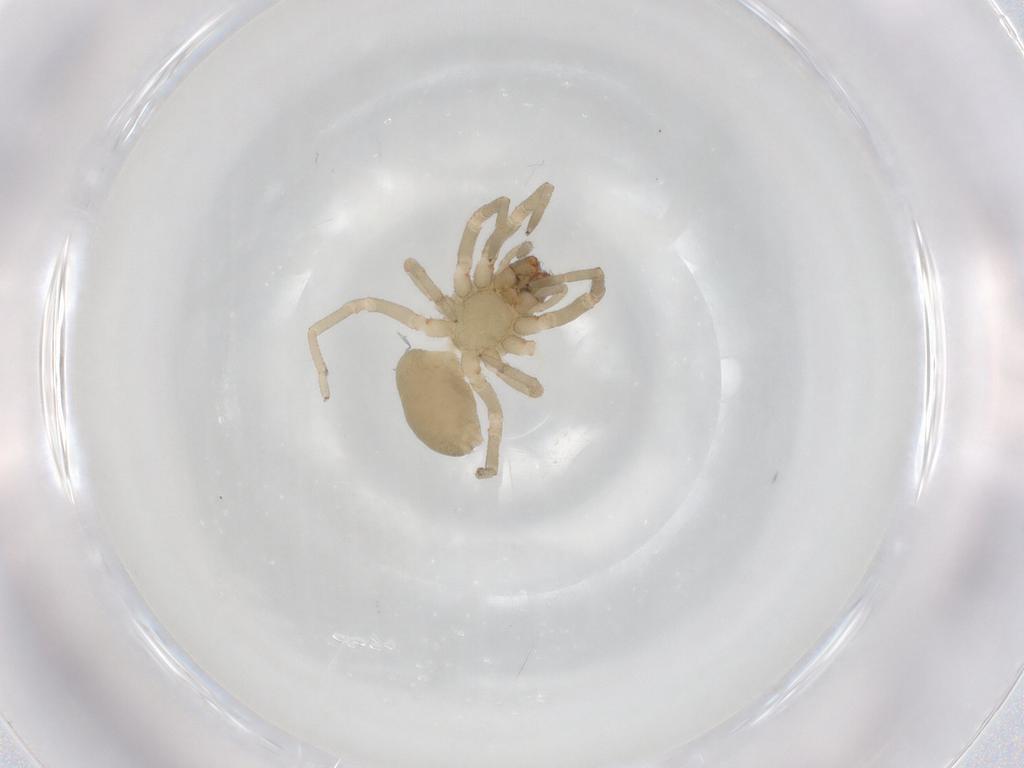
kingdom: Animalia
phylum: Arthropoda
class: Arachnida
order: Araneae
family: Trachelidae
